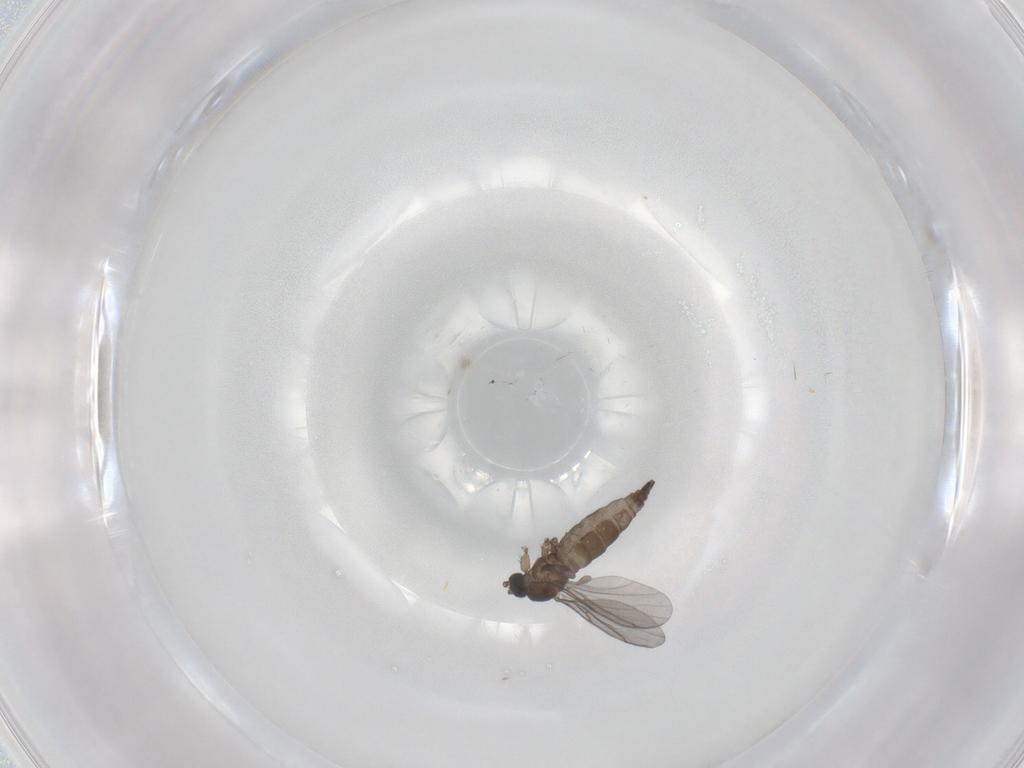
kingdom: Animalia
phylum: Arthropoda
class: Insecta
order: Diptera
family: Sciaridae
